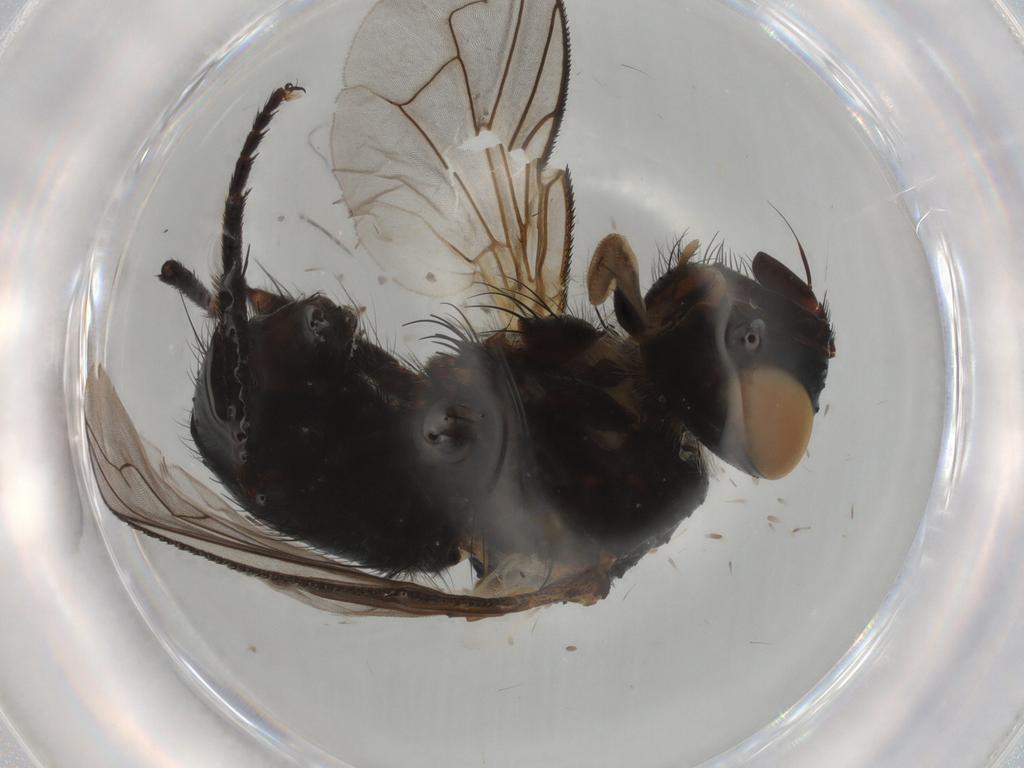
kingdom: Animalia
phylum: Arthropoda
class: Insecta
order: Diptera
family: Tachinidae
